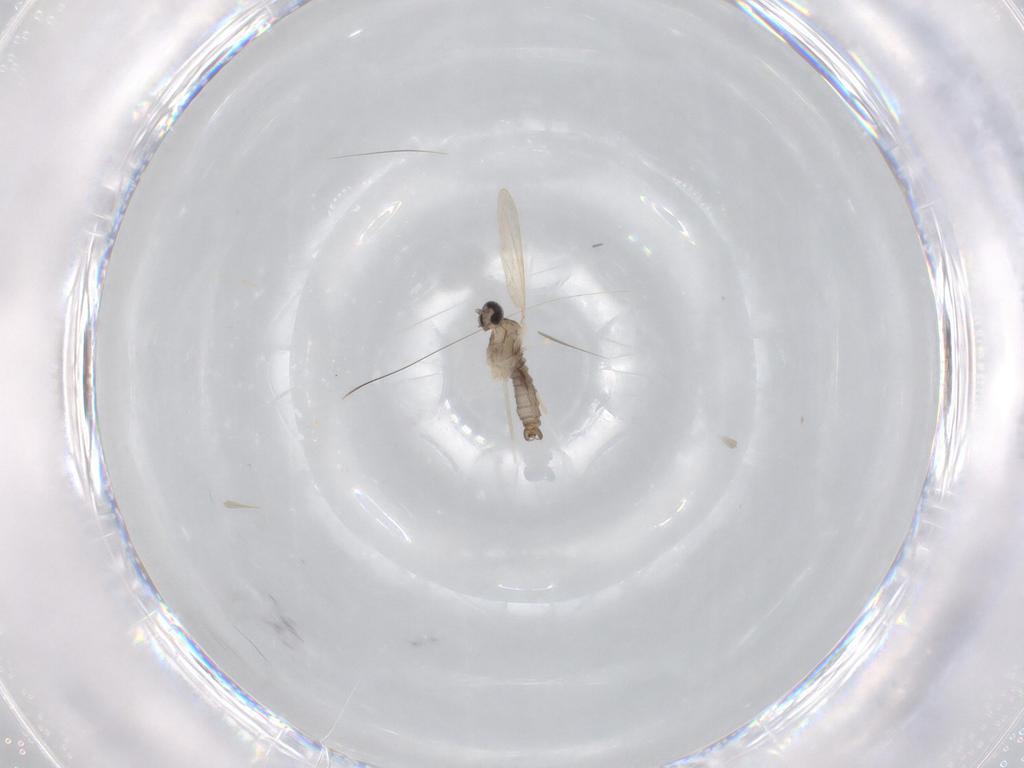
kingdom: Animalia
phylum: Arthropoda
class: Insecta
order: Diptera
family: Cecidomyiidae
